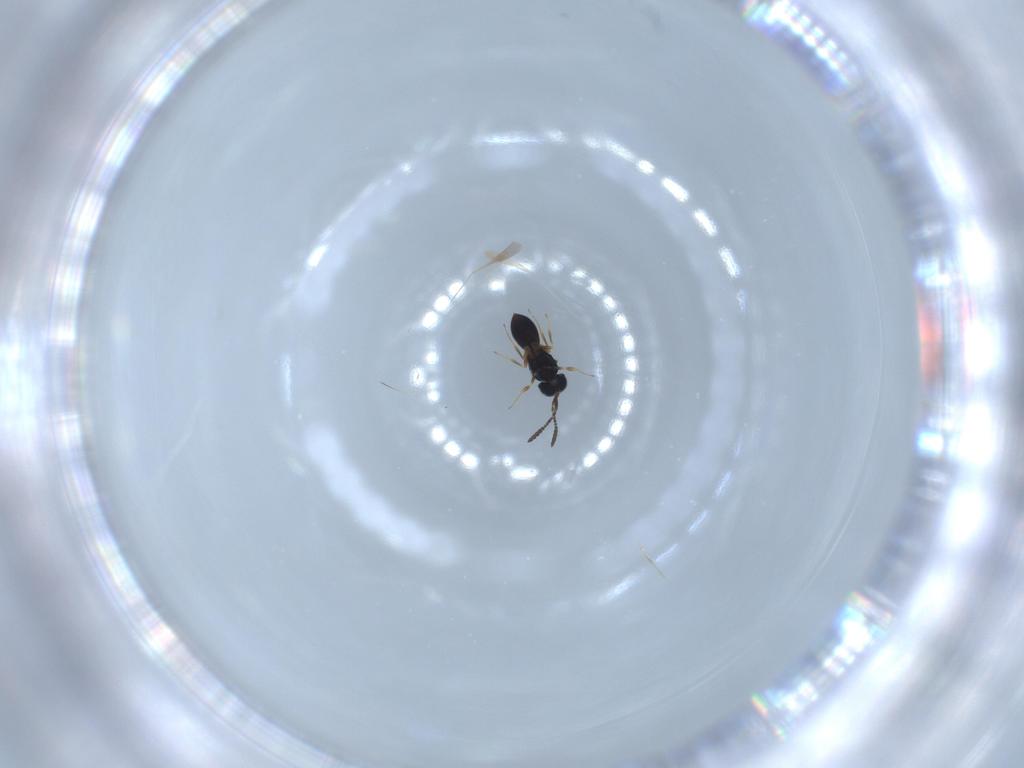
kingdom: Animalia
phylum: Arthropoda
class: Insecta
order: Hymenoptera
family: Scelionidae
